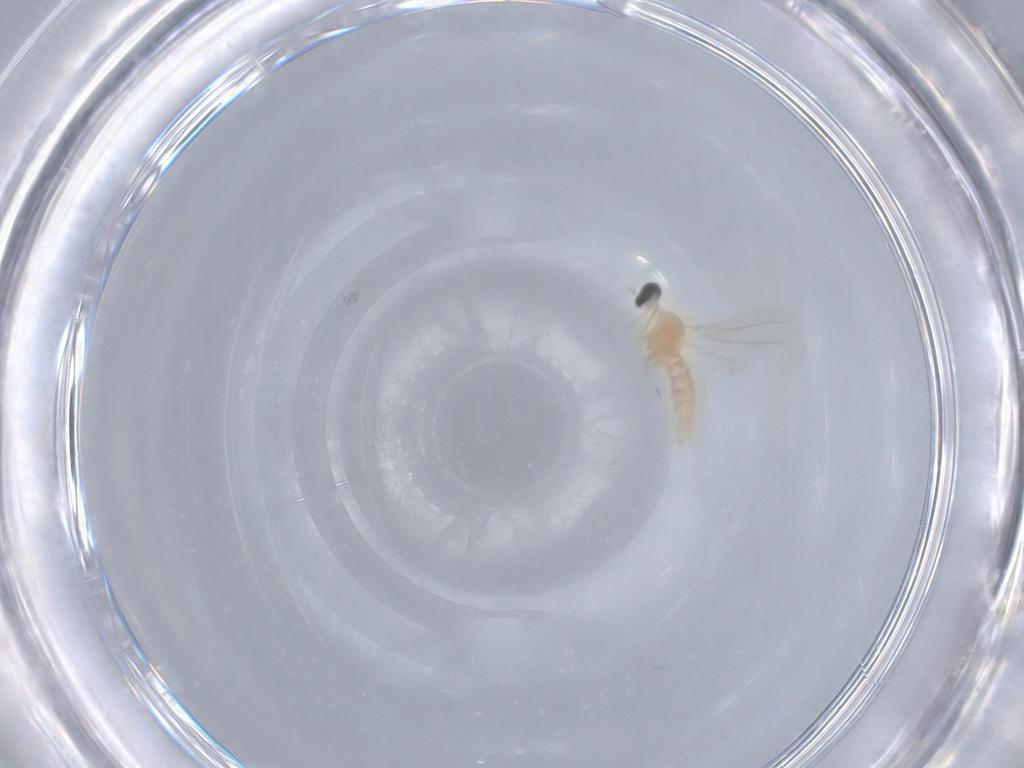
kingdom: Animalia
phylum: Arthropoda
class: Insecta
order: Diptera
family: Cecidomyiidae
